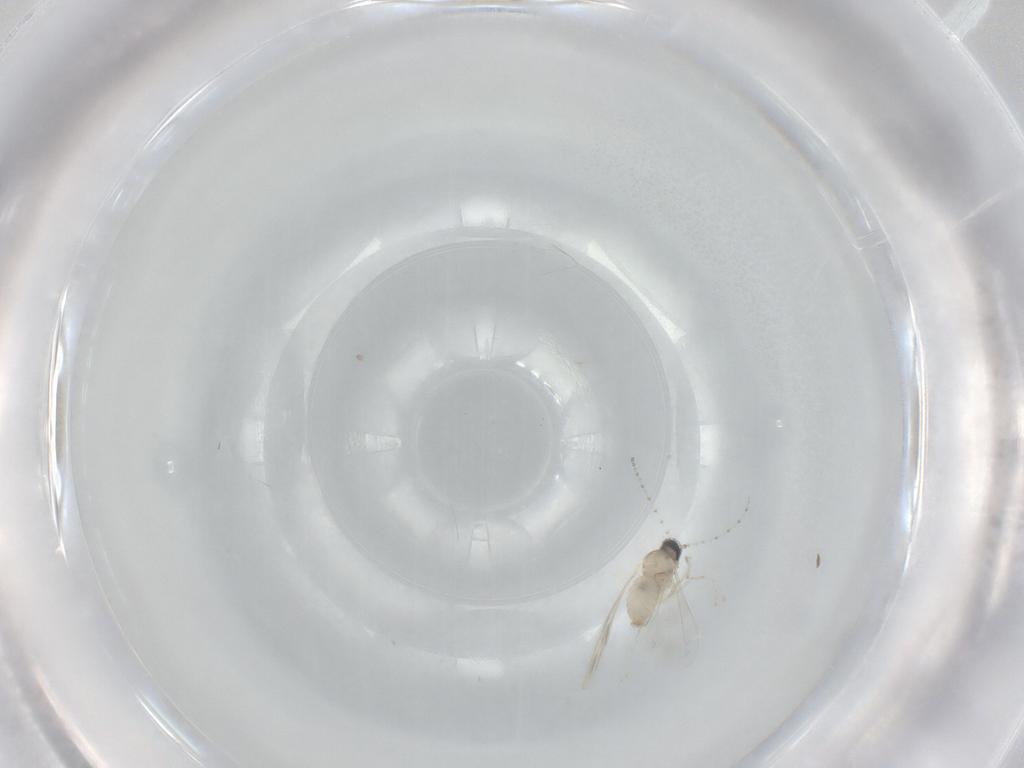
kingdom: Animalia
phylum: Arthropoda
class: Insecta
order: Diptera
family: Cecidomyiidae
